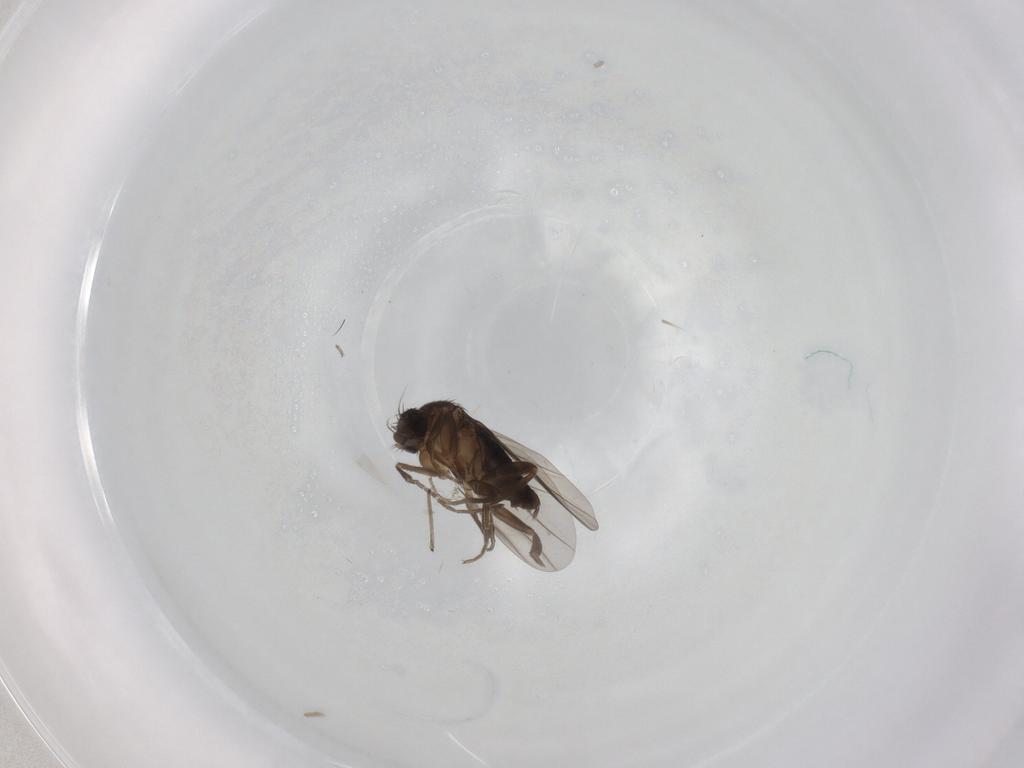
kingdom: Animalia
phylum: Arthropoda
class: Insecta
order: Diptera
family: Phoridae
